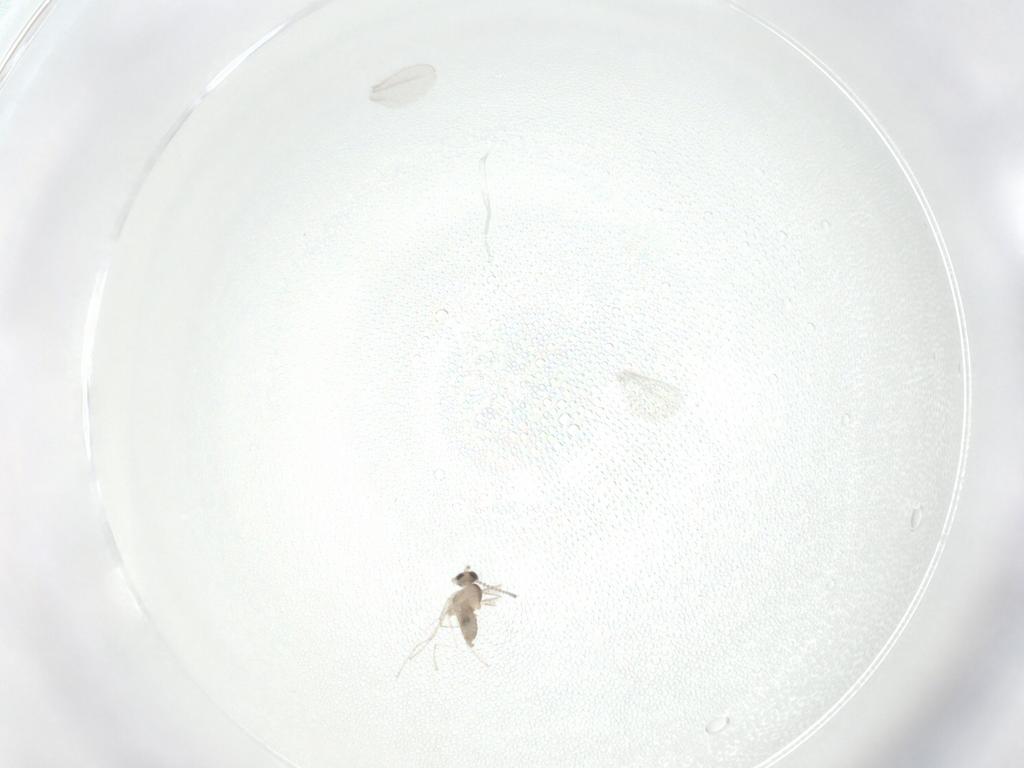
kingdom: Animalia
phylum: Arthropoda
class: Insecta
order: Diptera
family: Cecidomyiidae
